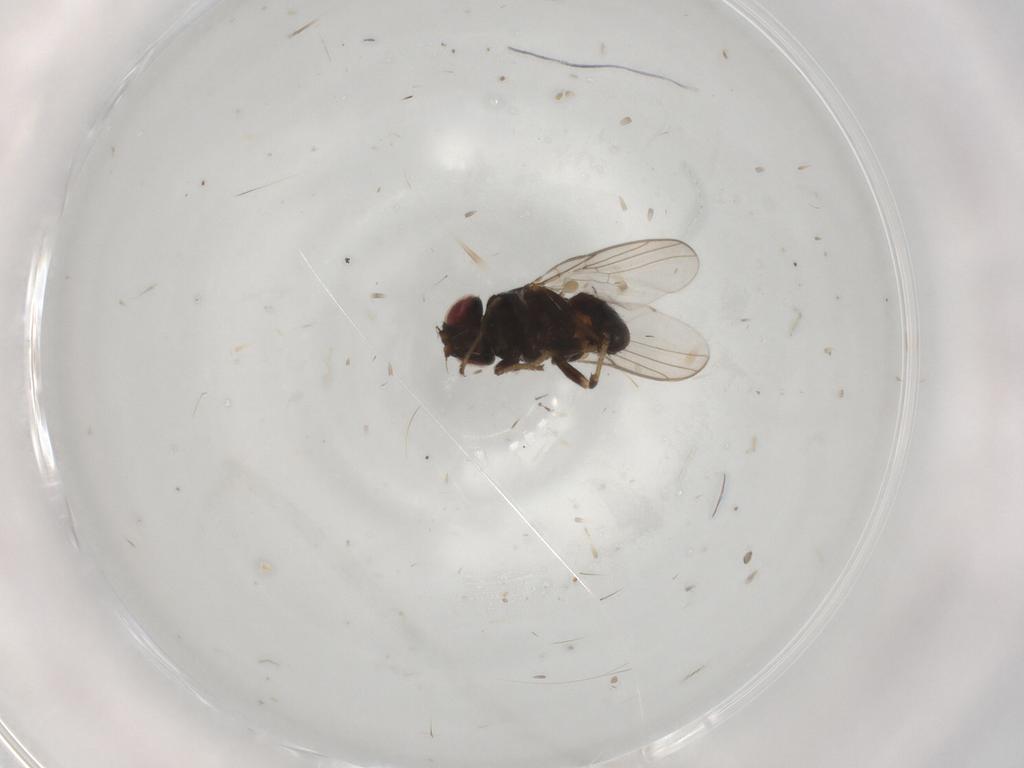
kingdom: Animalia
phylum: Arthropoda
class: Insecta
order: Diptera
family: Chloropidae
